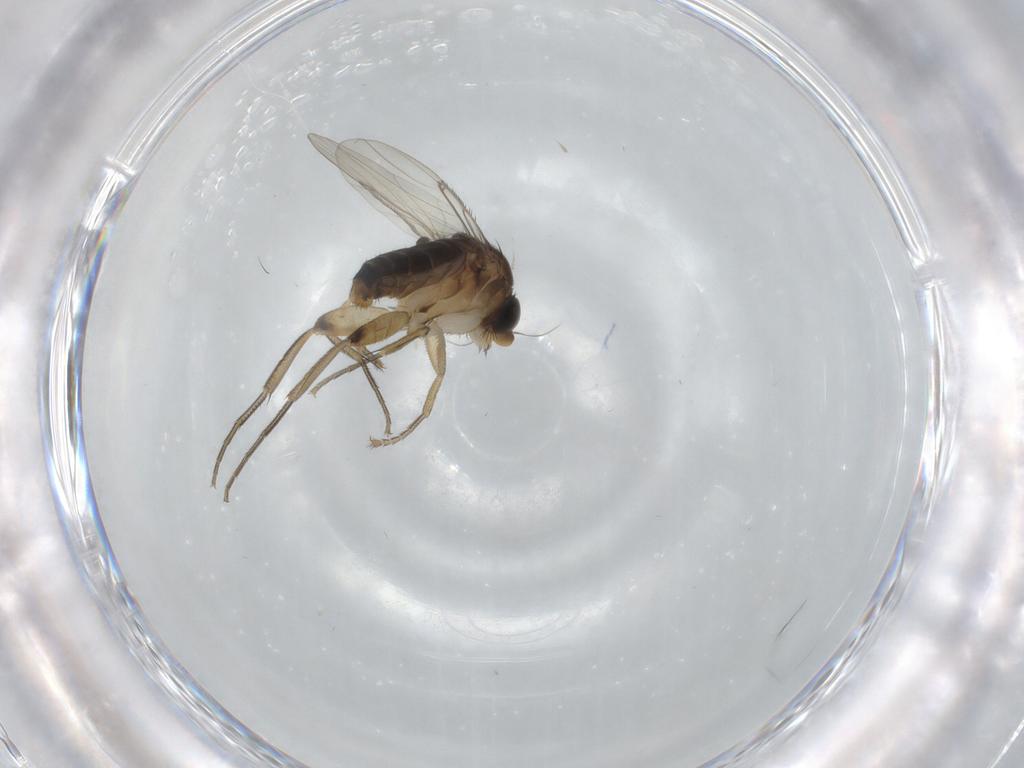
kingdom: Animalia
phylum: Arthropoda
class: Insecta
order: Diptera
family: Phoridae
